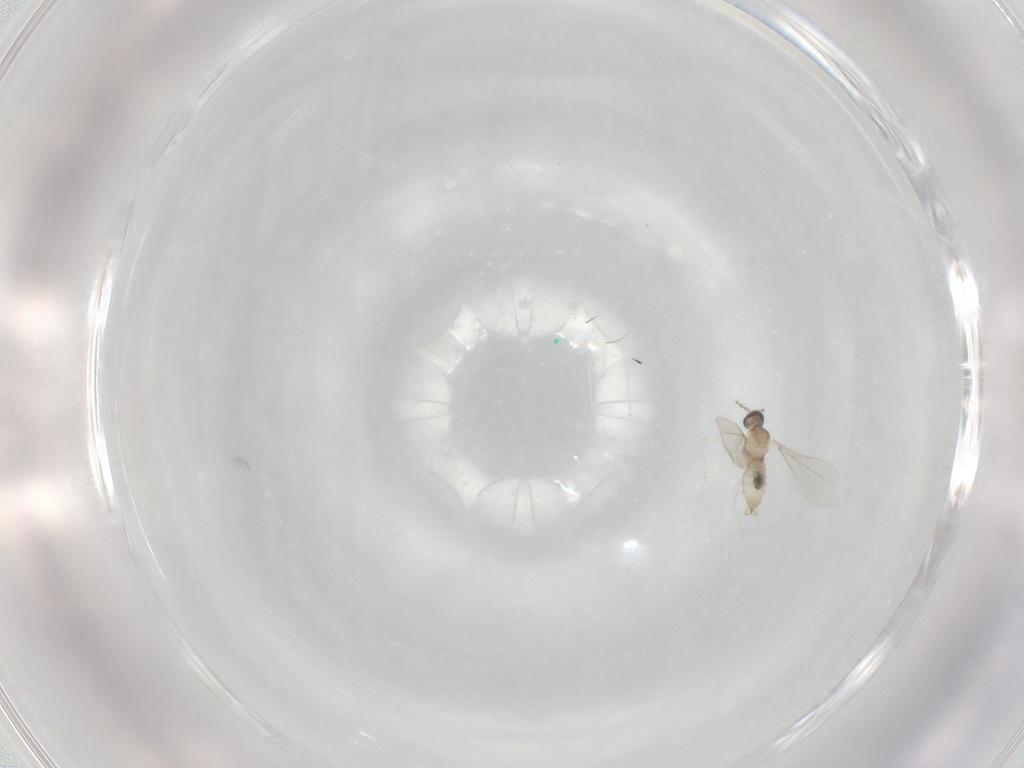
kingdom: Animalia
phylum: Arthropoda
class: Insecta
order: Diptera
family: Cecidomyiidae
